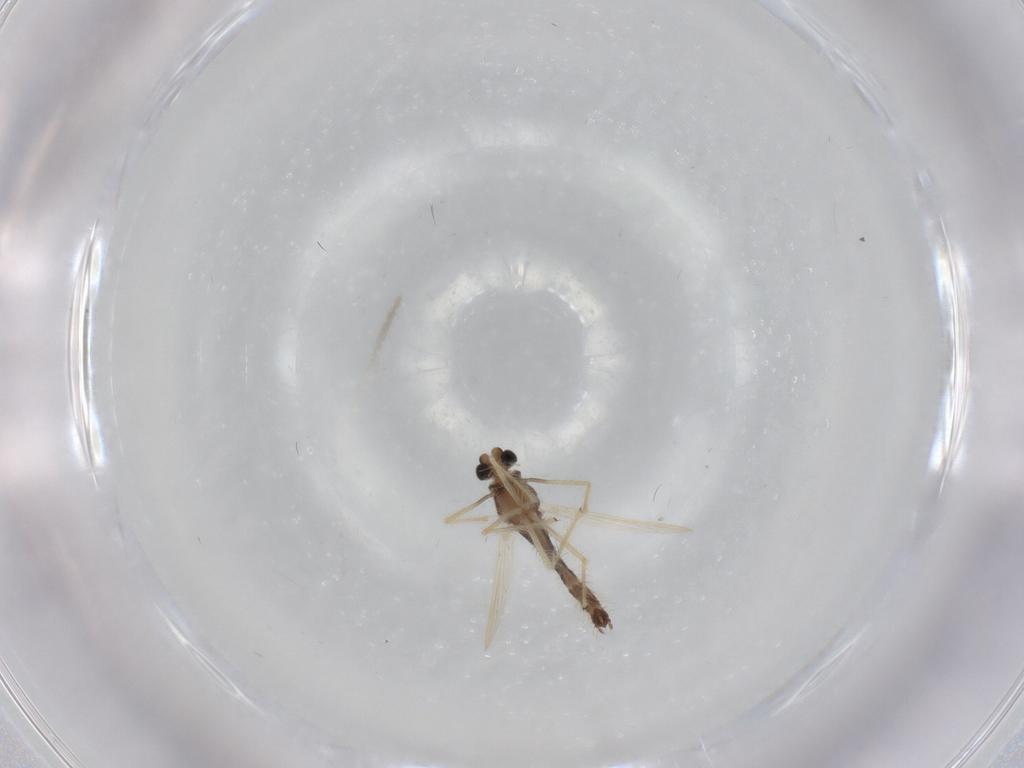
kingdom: Animalia
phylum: Arthropoda
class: Insecta
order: Diptera
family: Chironomidae
